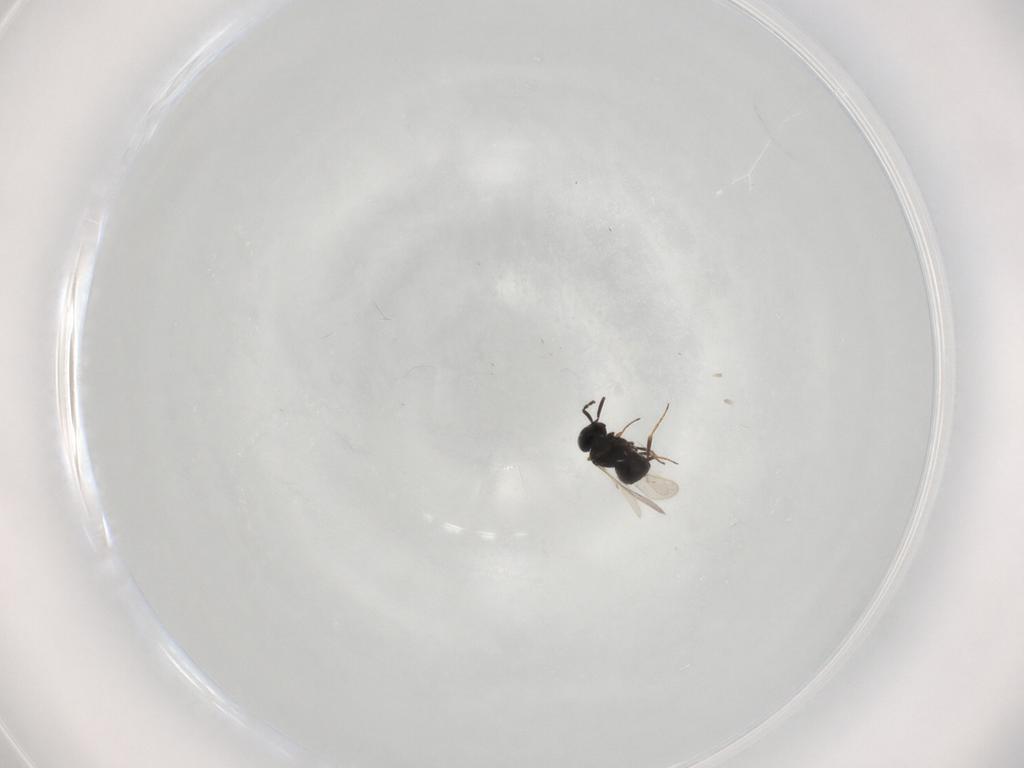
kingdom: Animalia
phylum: Arthropoda
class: Insecta
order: Hymenoptera
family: Scelionidae
